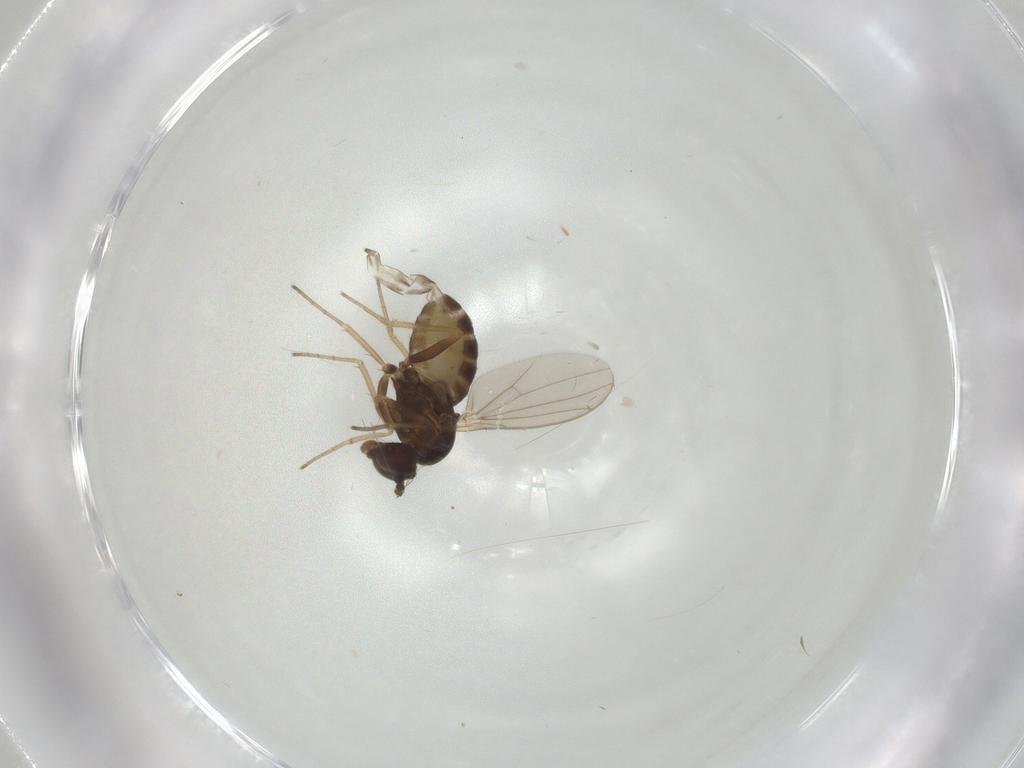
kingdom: Animalia
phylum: Arthropoda
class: Insecta
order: Diptera
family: Dolichopodidae
